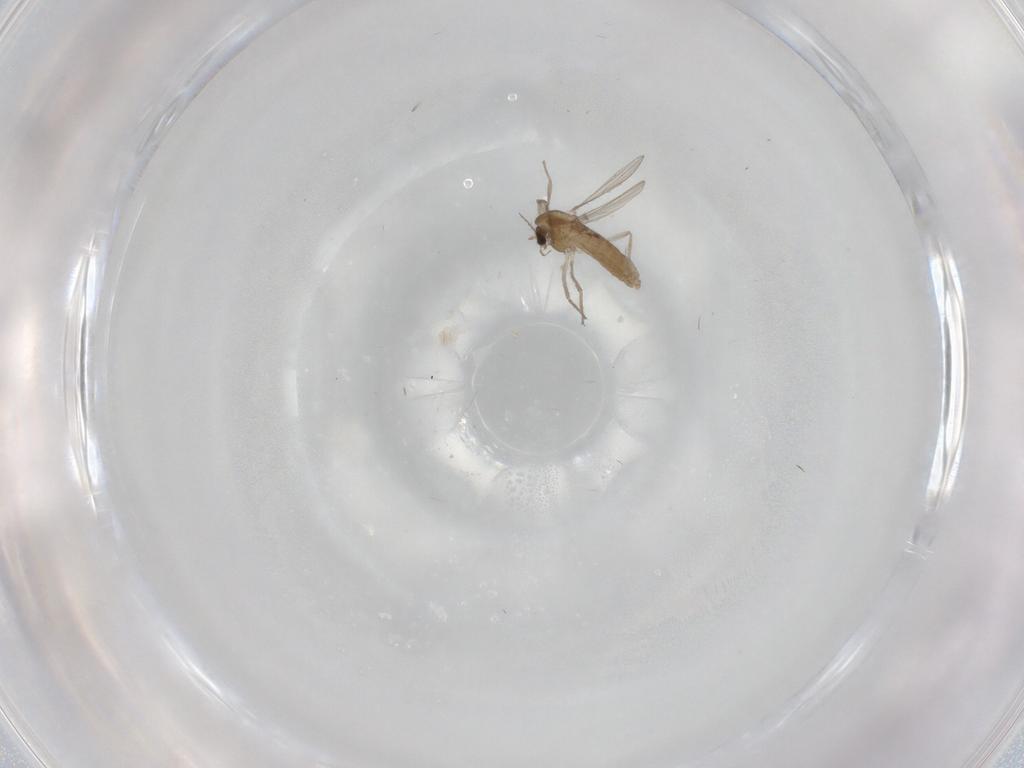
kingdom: Animalia
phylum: Arthropoda
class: Insecta
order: Diptera
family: Chironomidae
